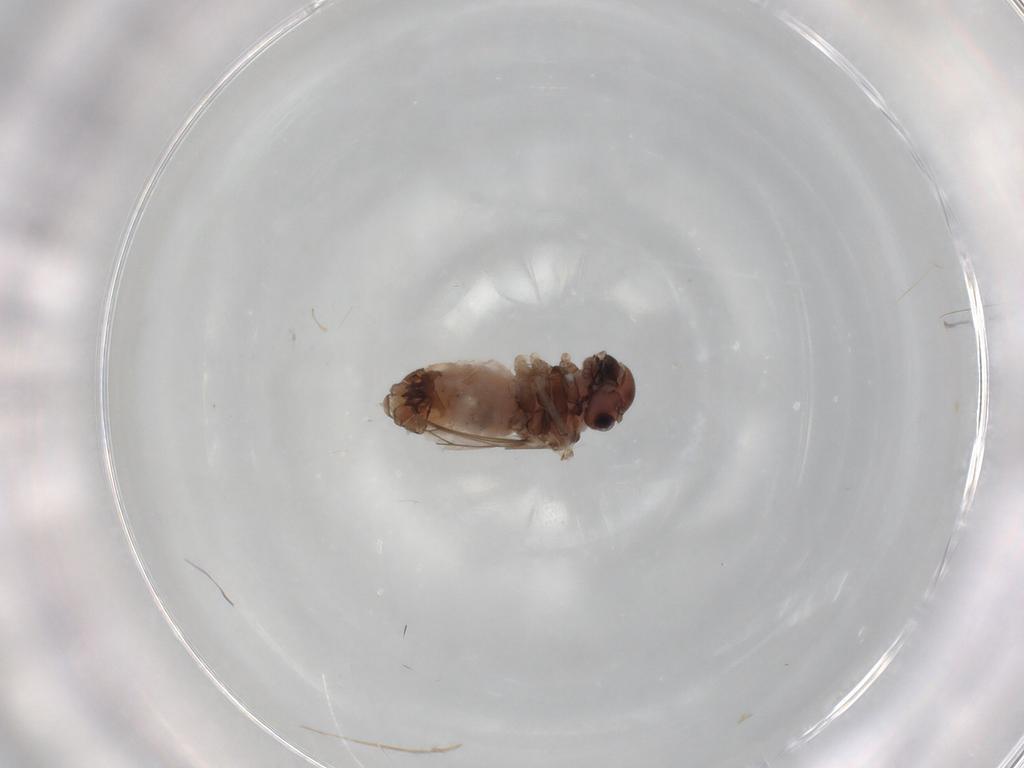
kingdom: Animalia
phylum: Arthropoda
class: Insecta
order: Psocodea
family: Peripsocidae
